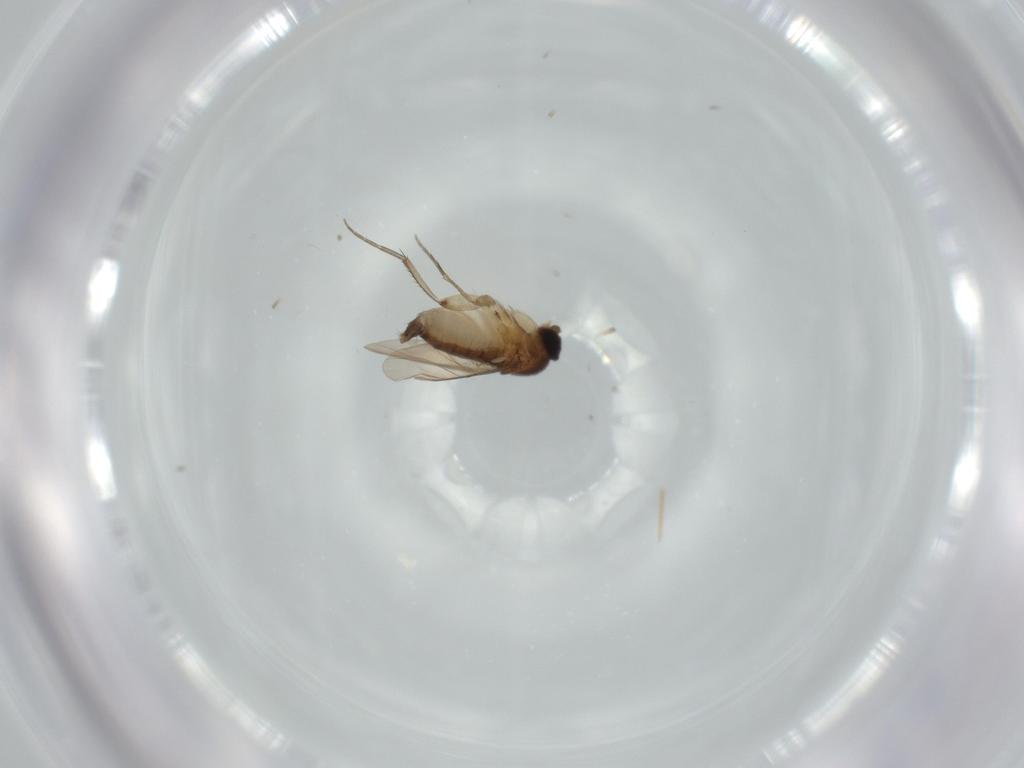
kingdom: Animalia
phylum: Arthropoda
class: Insecta
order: Diptera
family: Phoridae
